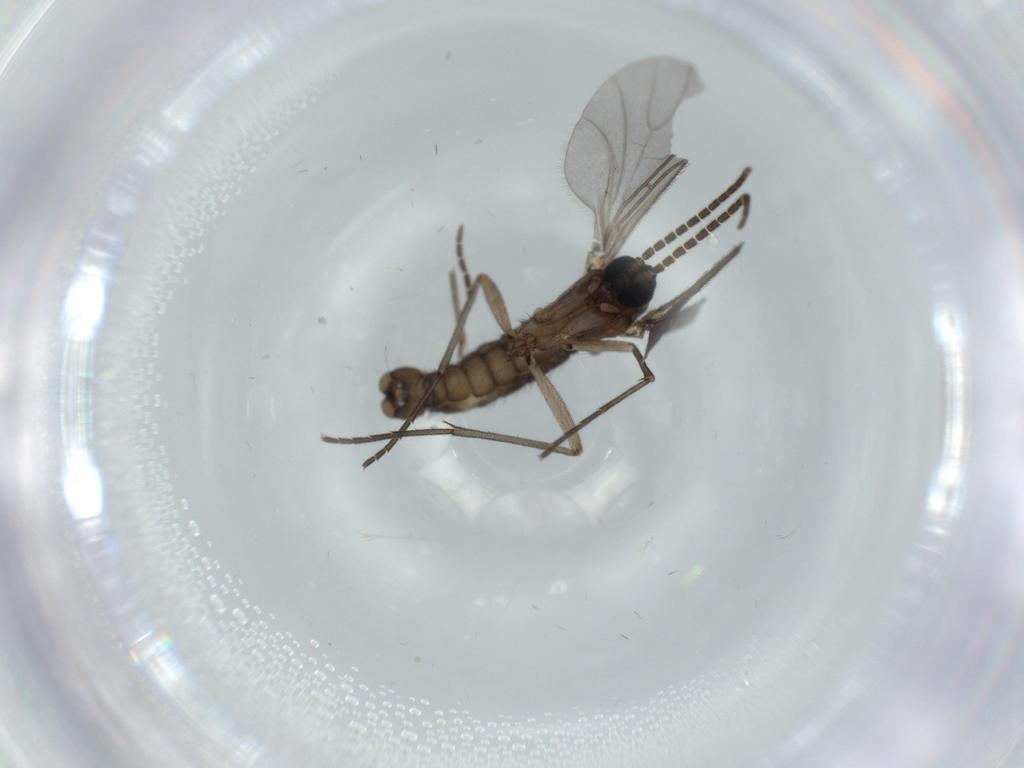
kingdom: Animalia
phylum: Arthropoda
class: Insecta
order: Diptera
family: Sciaridae
